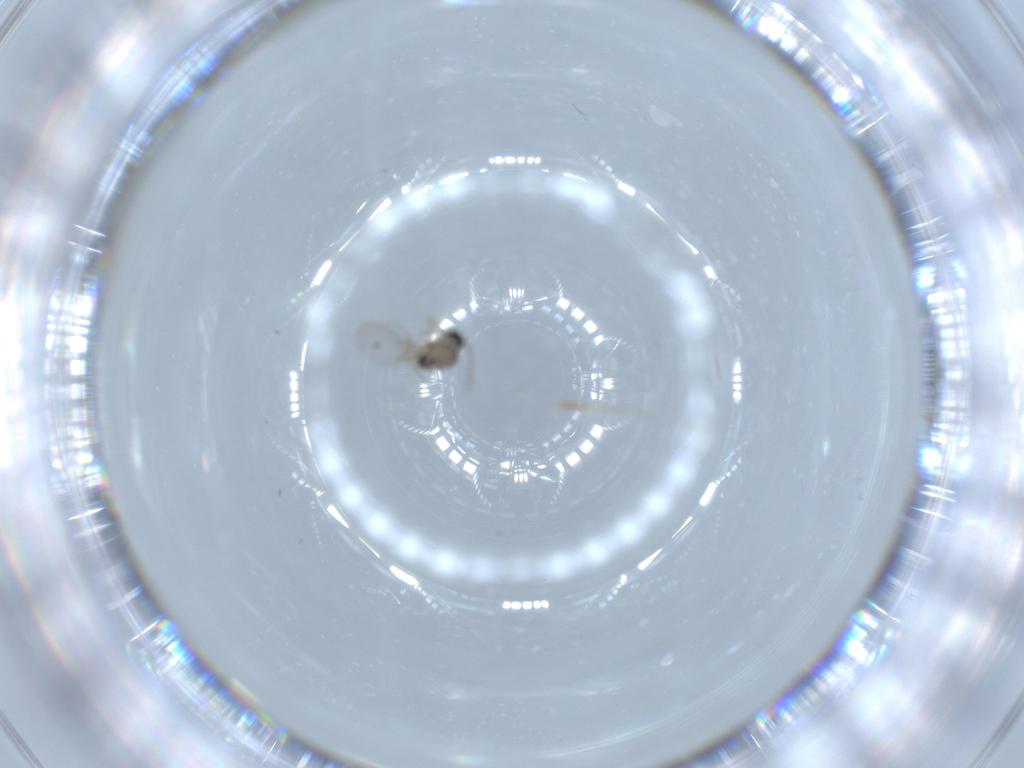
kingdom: Animalia
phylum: Arthropoda
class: Insecta
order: Diptera
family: Cecidomyiidae
